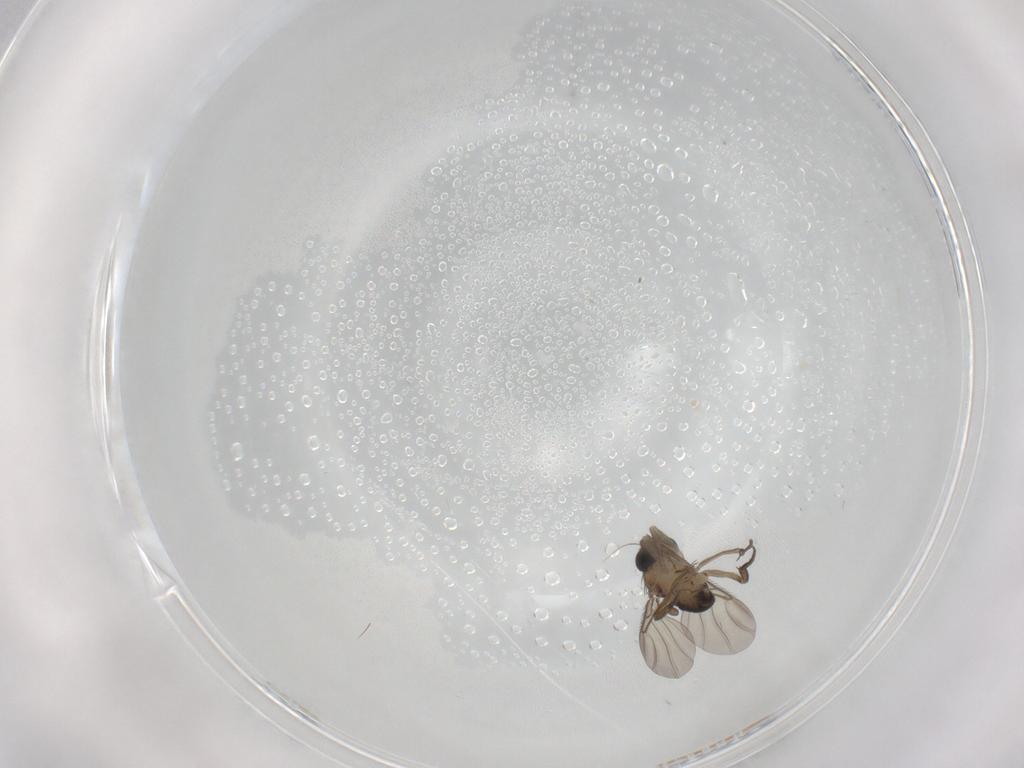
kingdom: Animalia
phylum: Arthropoda
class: Insecta
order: Diptera
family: Phoridae
